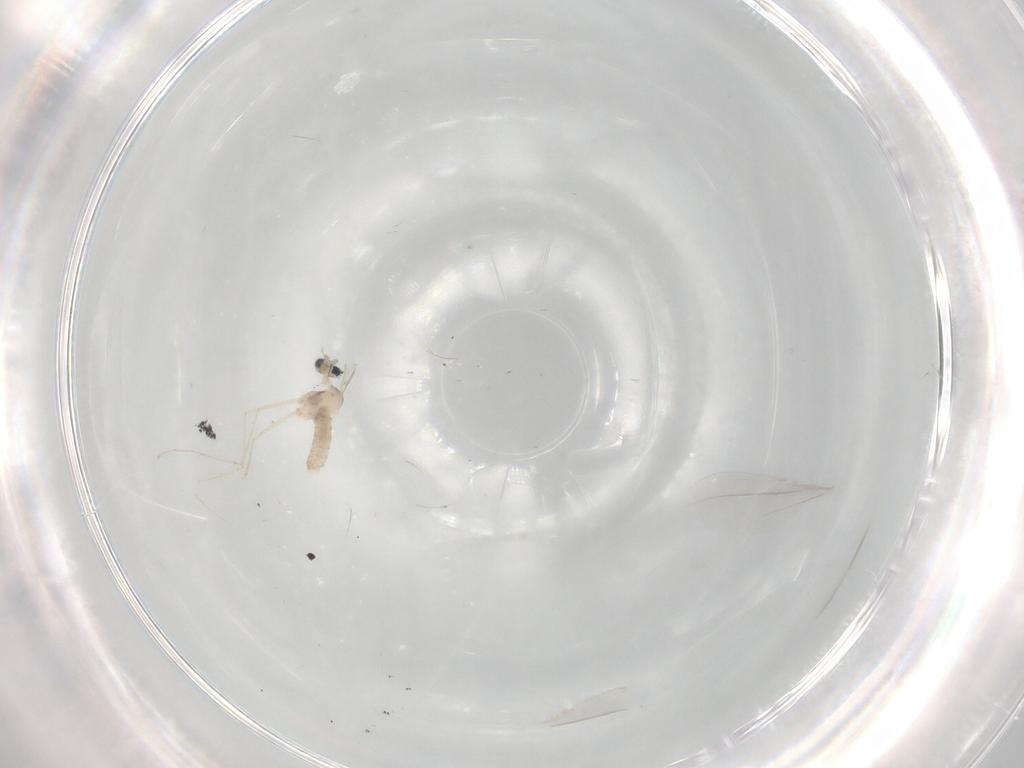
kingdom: Animalia
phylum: Arthropoda
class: Insecta
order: Diptera
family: Cecidomyiidae
